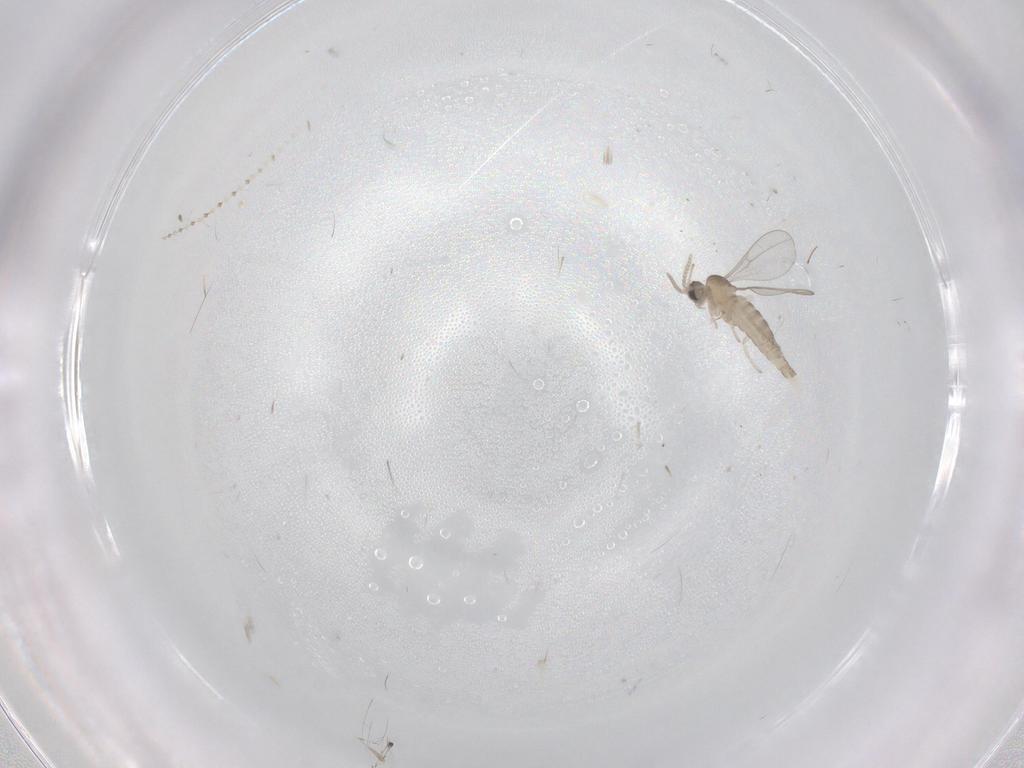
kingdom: Animalia
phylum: Arthropoda
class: Insecta
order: Diptera
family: Cecidomyiidae
